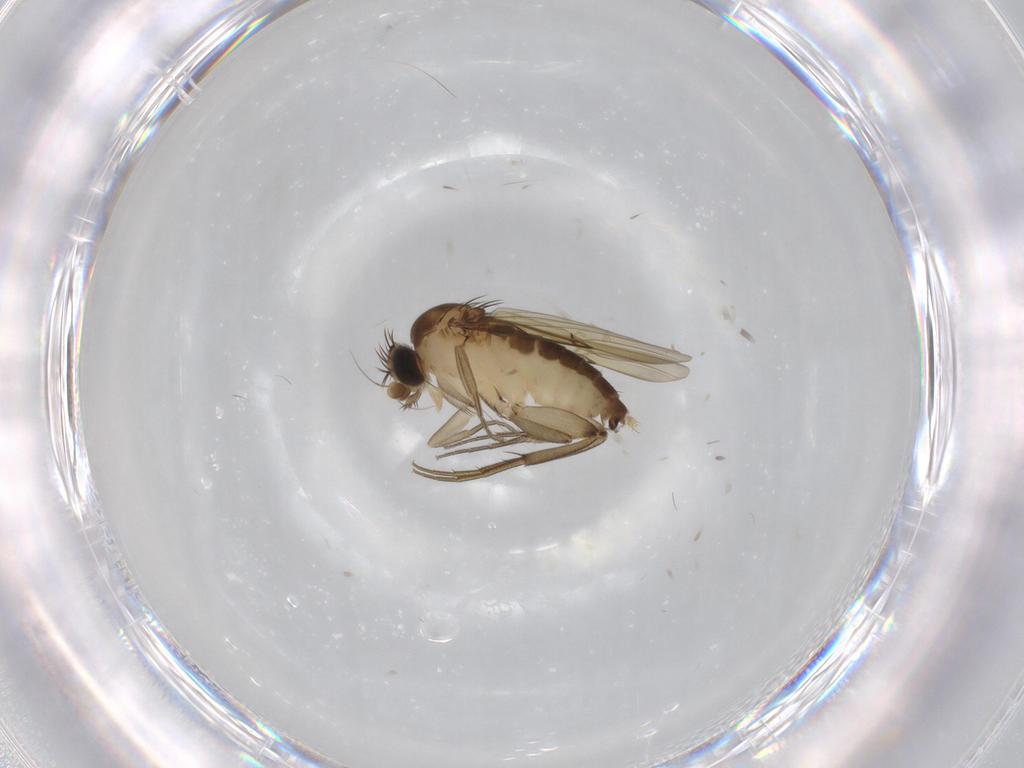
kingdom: Animalia
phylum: Arthropoda
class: Insecta
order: Diptera
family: Phoridae
